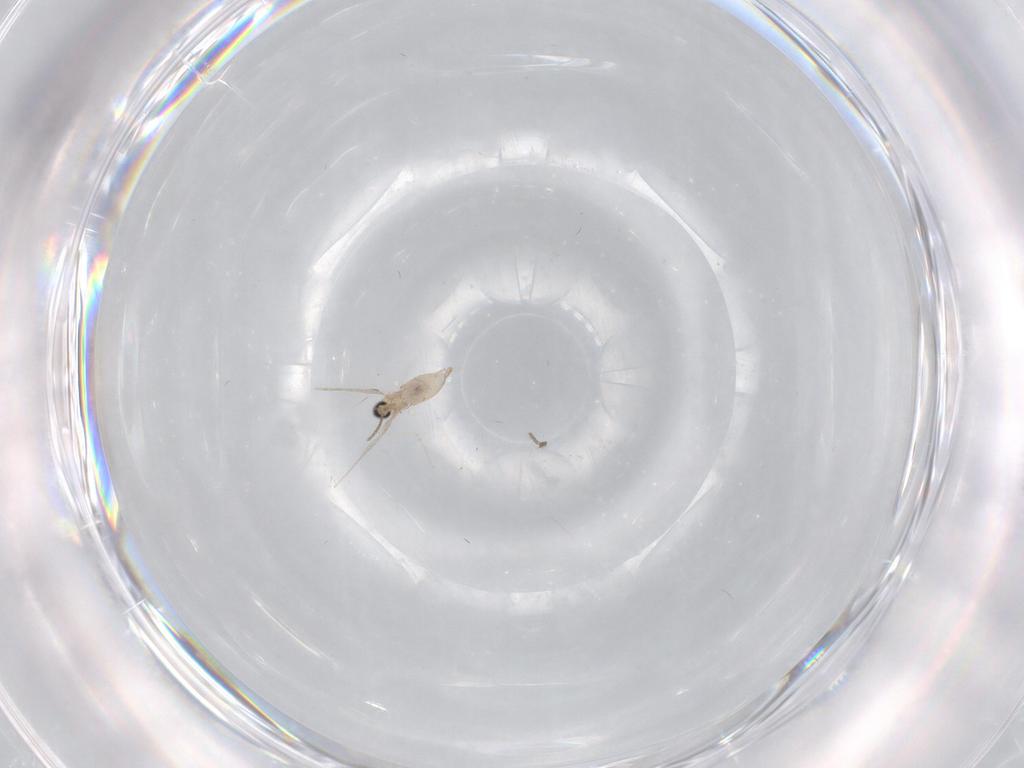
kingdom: Animalia
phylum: Arthropoda
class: Insecta
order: Diptera
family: Cecidomyiidae
